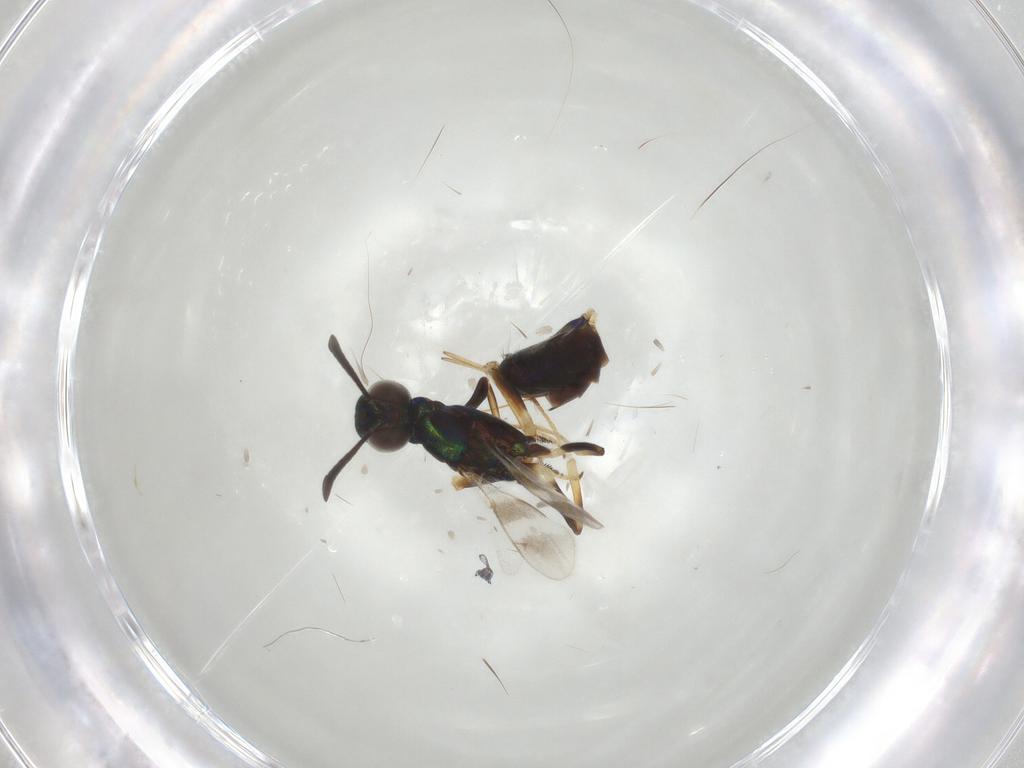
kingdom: Animalia
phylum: Arthropoda
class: Insecta
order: Hymenoptera
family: Eupelmidae
